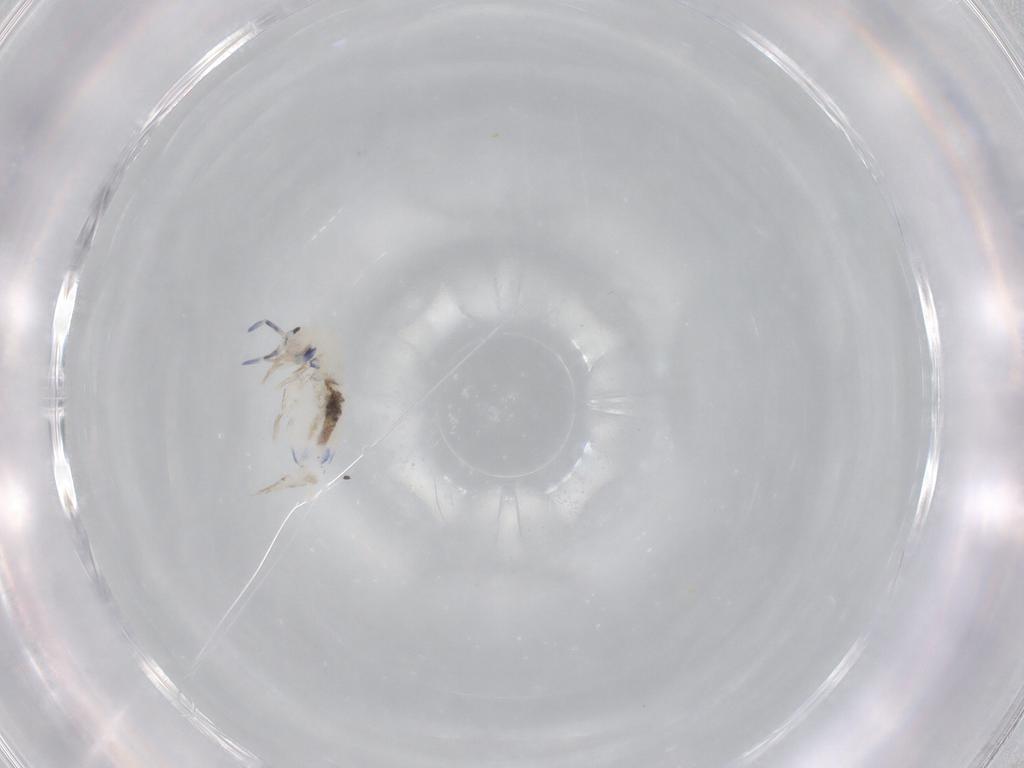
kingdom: Animalia
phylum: Arthropoda
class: Collembola
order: Entomobryomorpha
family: Entomobryidae
